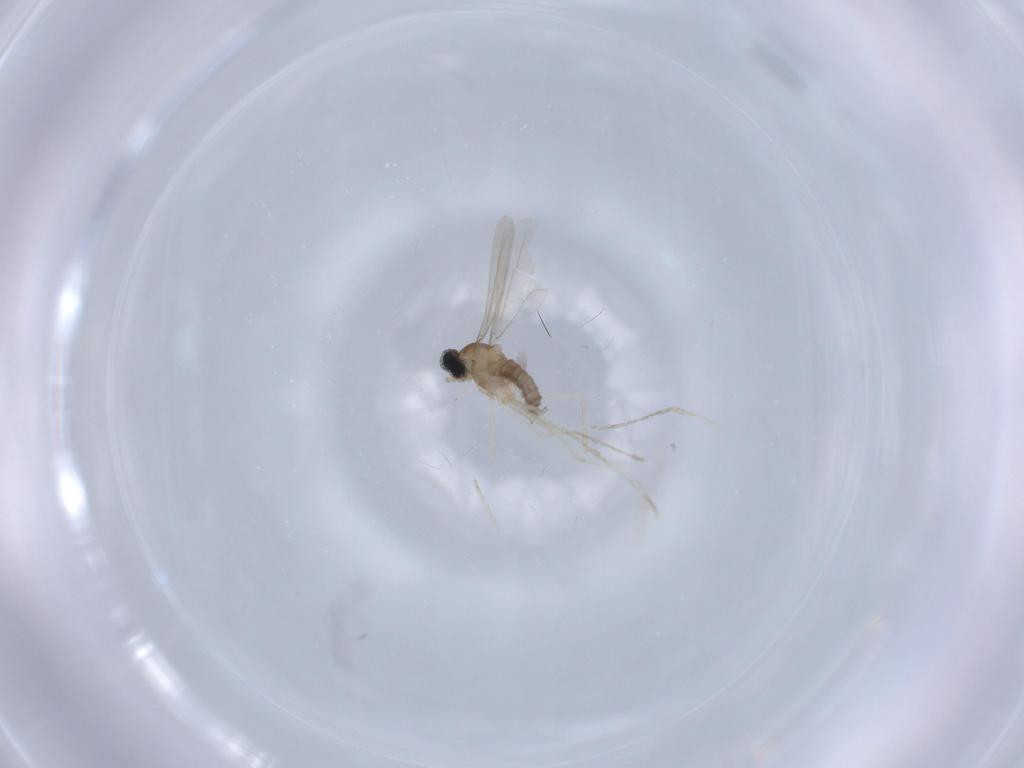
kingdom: Animalia
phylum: Arthropoda
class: Insecta
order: Diptera
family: Cecidomyiidae
